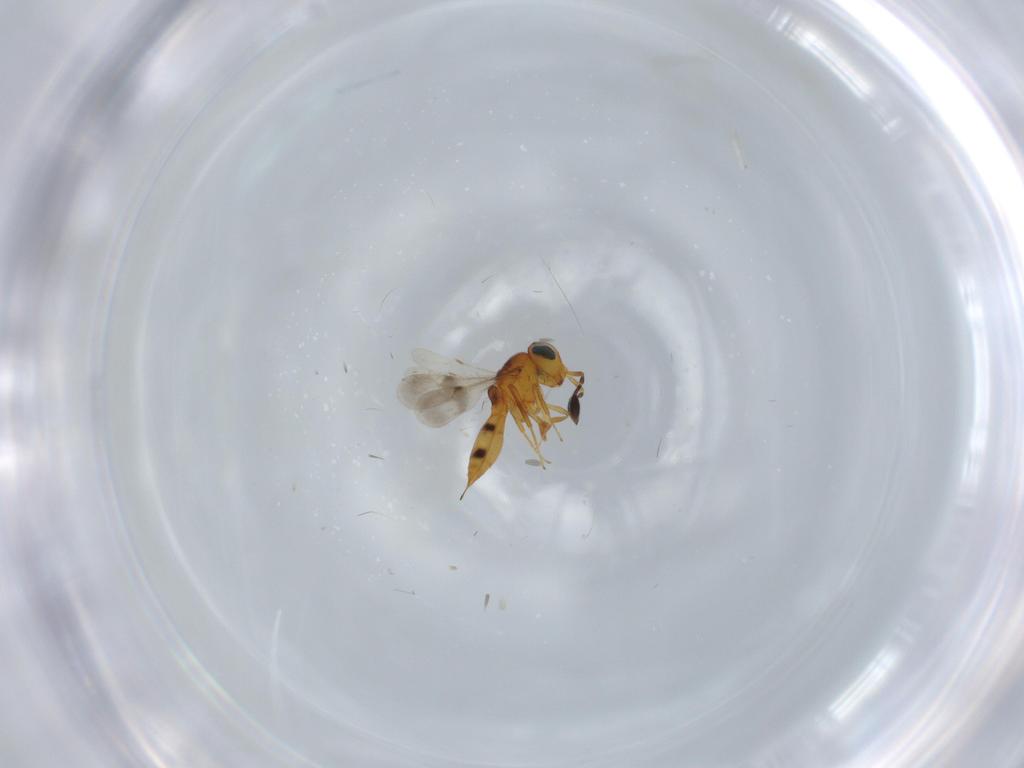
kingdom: Animalia
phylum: Arthropoda
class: Insecta
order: Hymenoptera
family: Scelionidae
